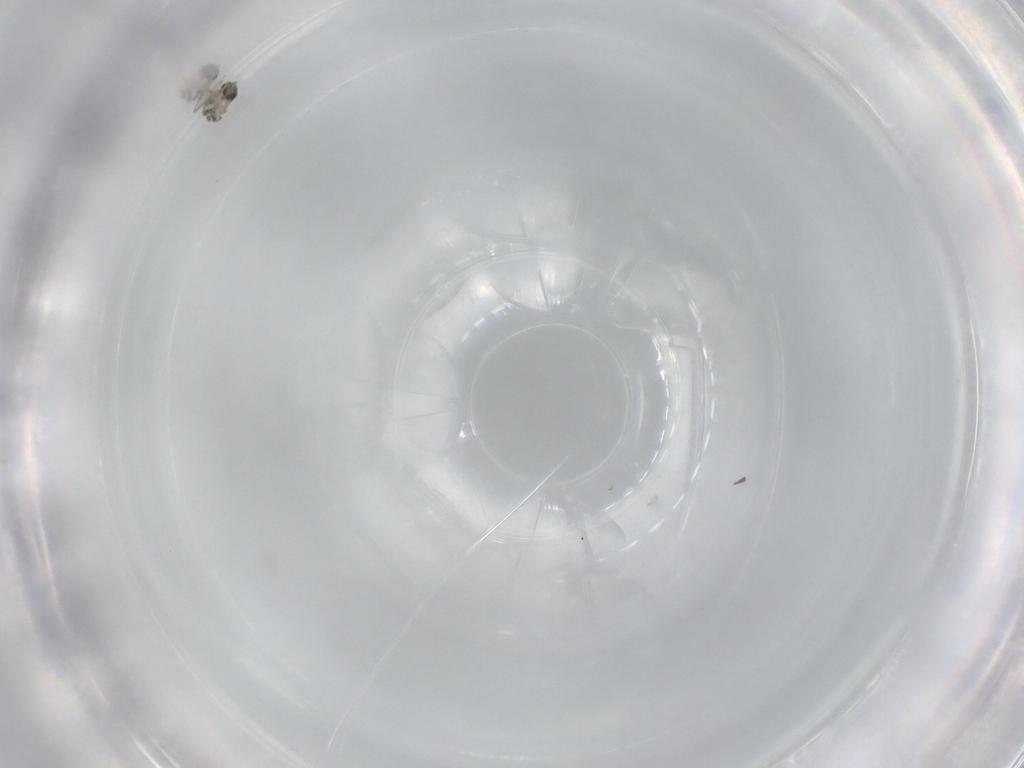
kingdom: Animalia
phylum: Arthropoda
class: Insecta
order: Hymenoptera
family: Trichogrammatidae
